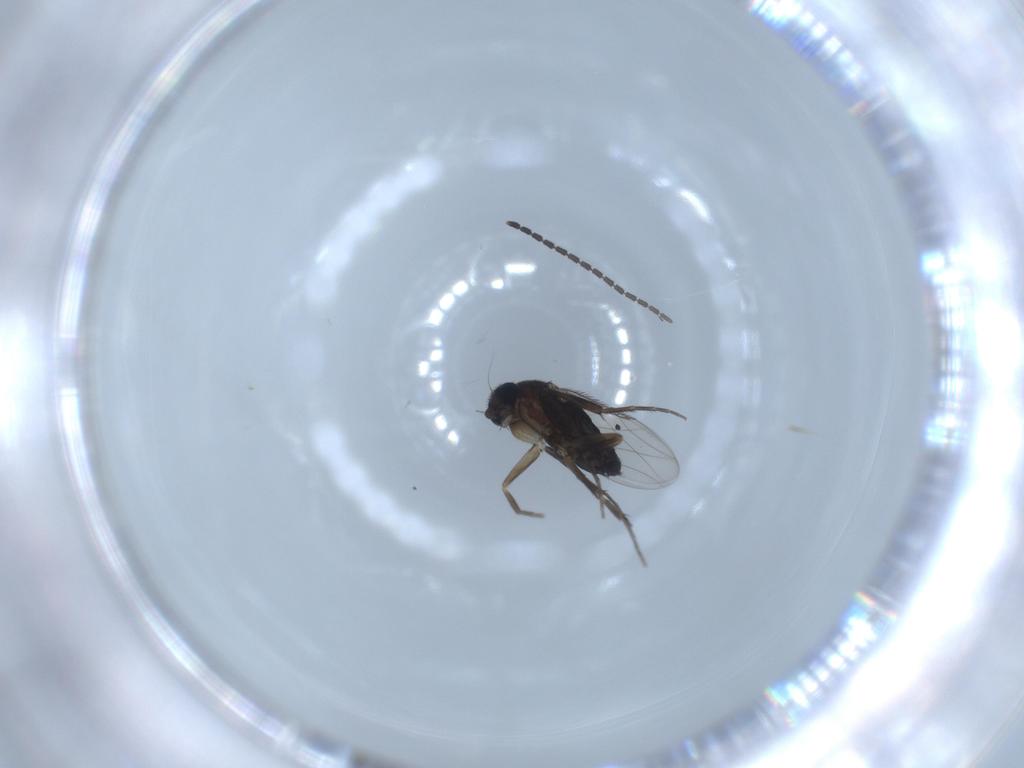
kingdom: Animalia
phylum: Arthropoda
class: Insecta
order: Diptera
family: Phoridae
